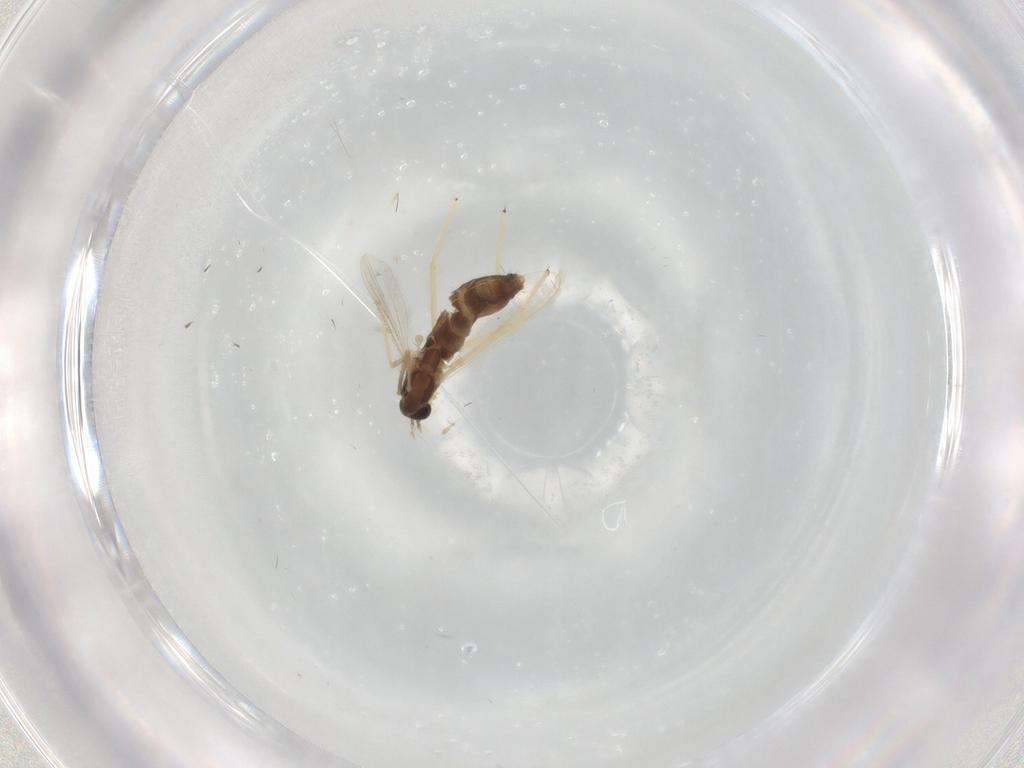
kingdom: Animalia
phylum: Arthropoda
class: Insecta
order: Diptera
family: Chironomidae
